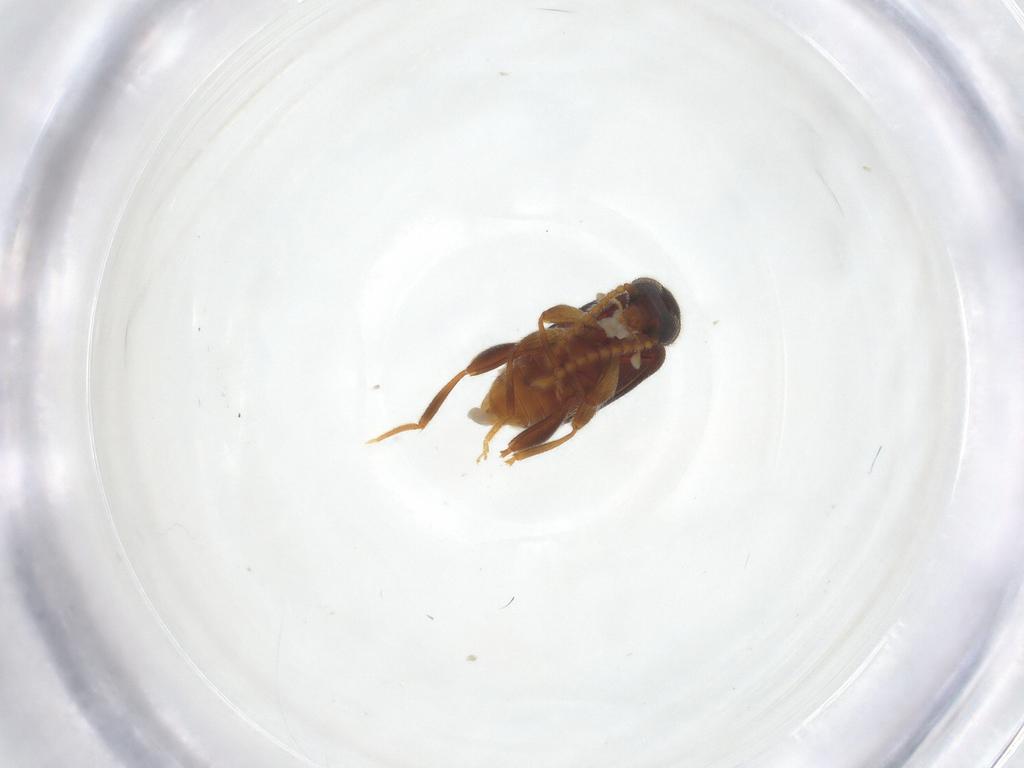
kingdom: Animalia
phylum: Arthropoda
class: Insecta
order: Coleoptera
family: Aderidae
